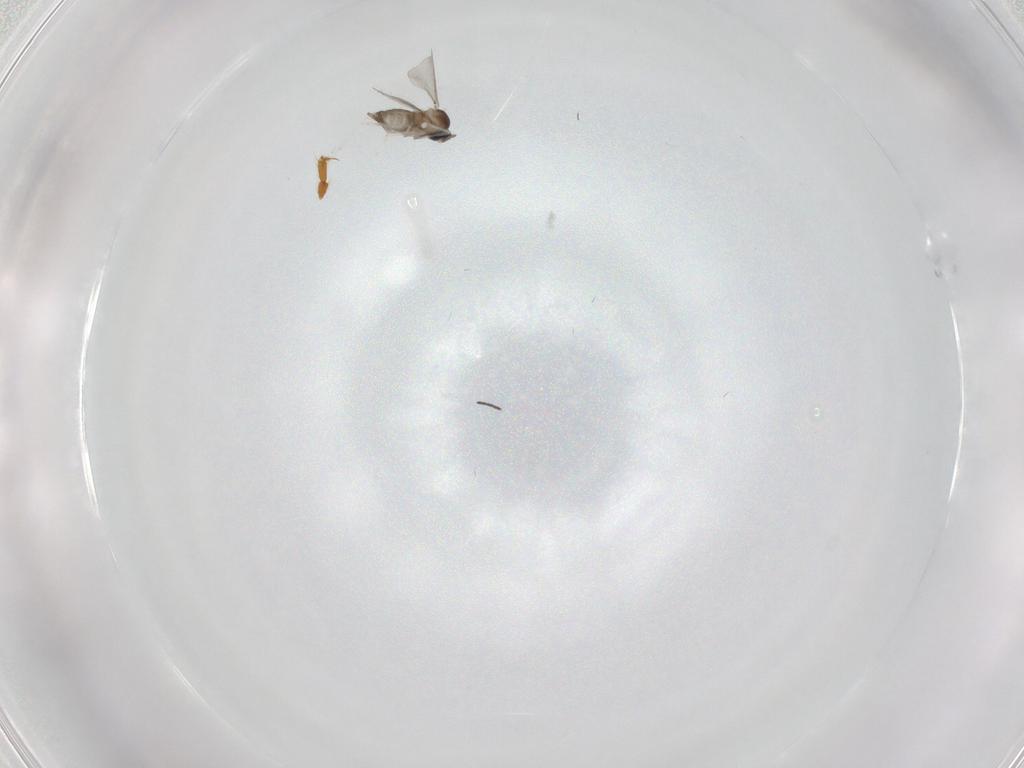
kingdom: Animalia
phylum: Arthropoda
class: Insecta
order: Diptera
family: Cecidomyiidae
